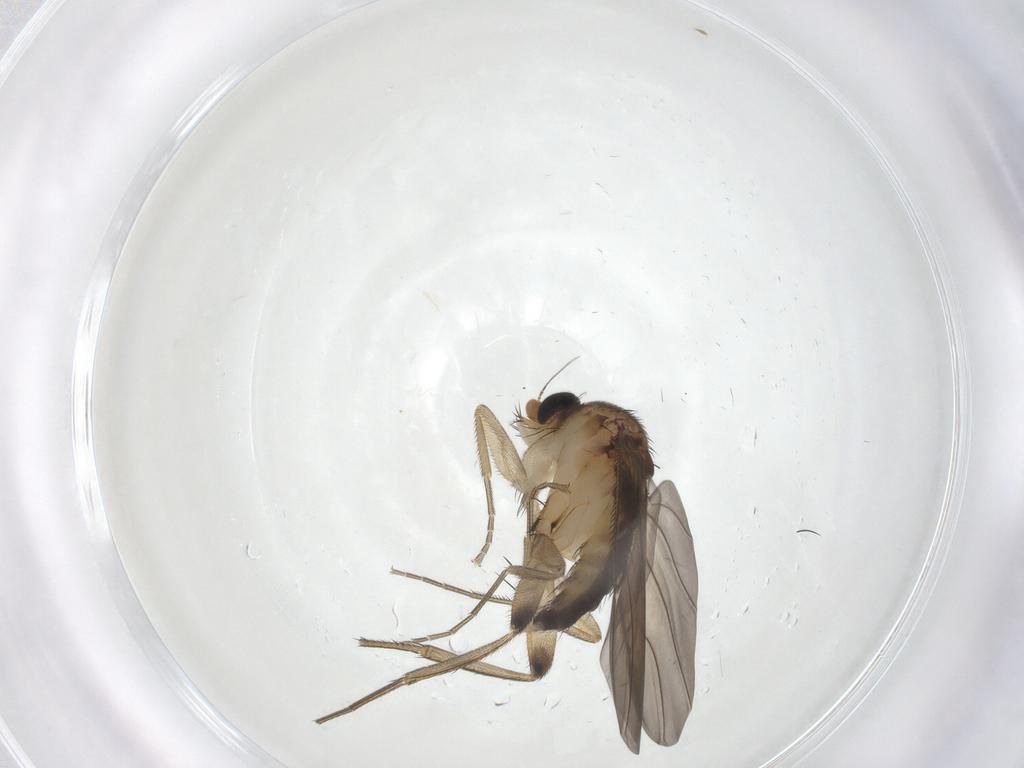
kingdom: Animalia
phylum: Arthropoda
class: Insecta
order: Diptera
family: Phoridae
